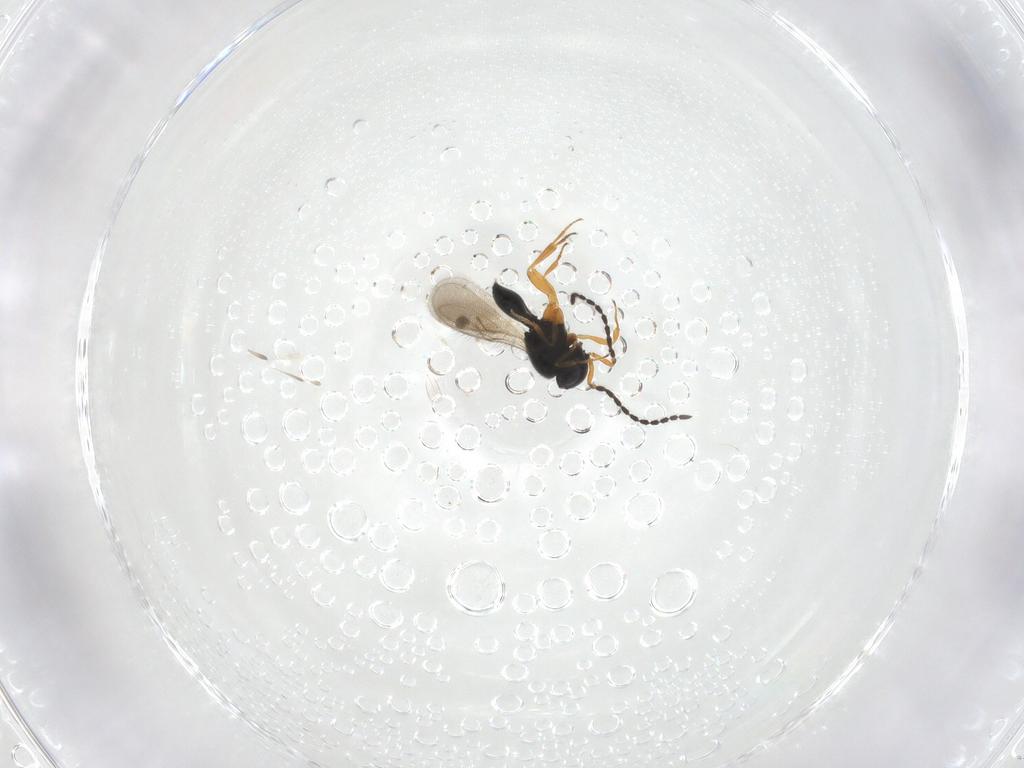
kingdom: Animalia
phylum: Arthropoda
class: Insecta
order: Hymenoptera
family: Scelionidae
